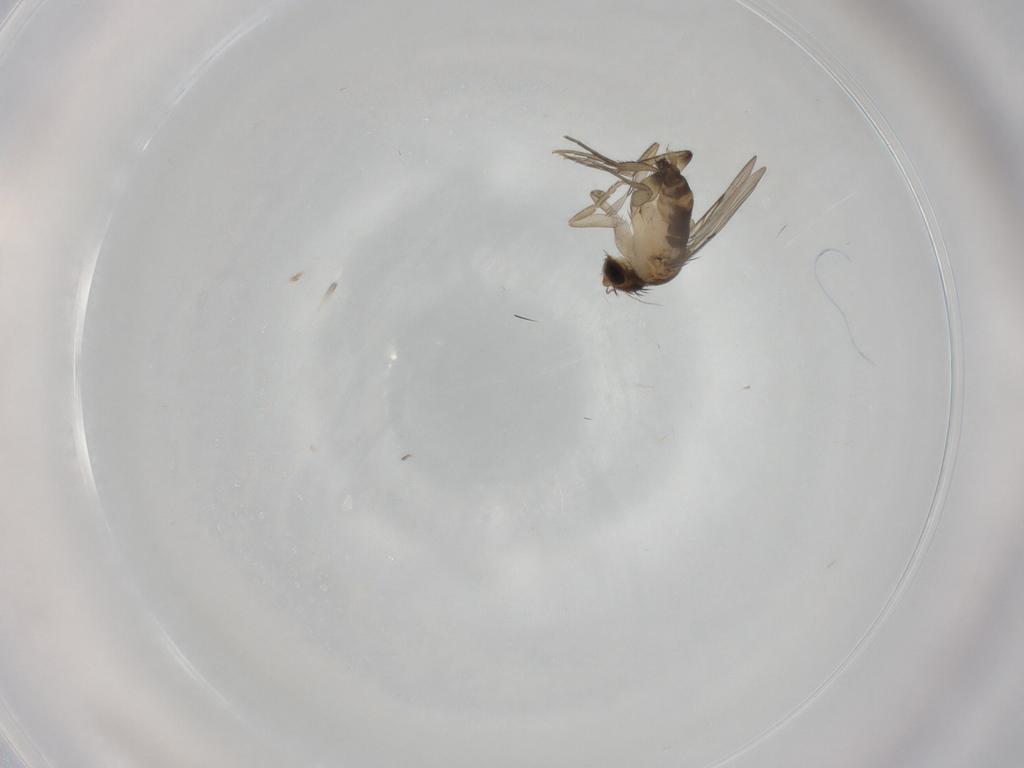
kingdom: Animalia
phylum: Arthropoda
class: Insecta
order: Diptera
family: Phoridae
